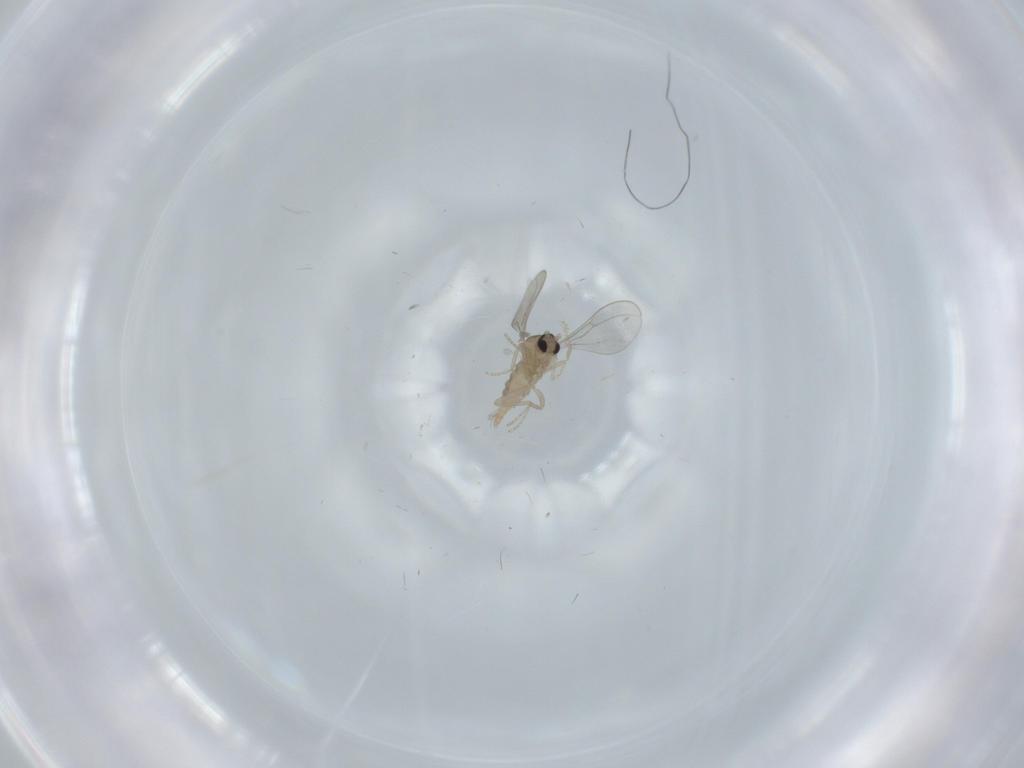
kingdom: Animalia
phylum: Arthropoda
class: Insecta
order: Diptera
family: Cecidomyiidae
